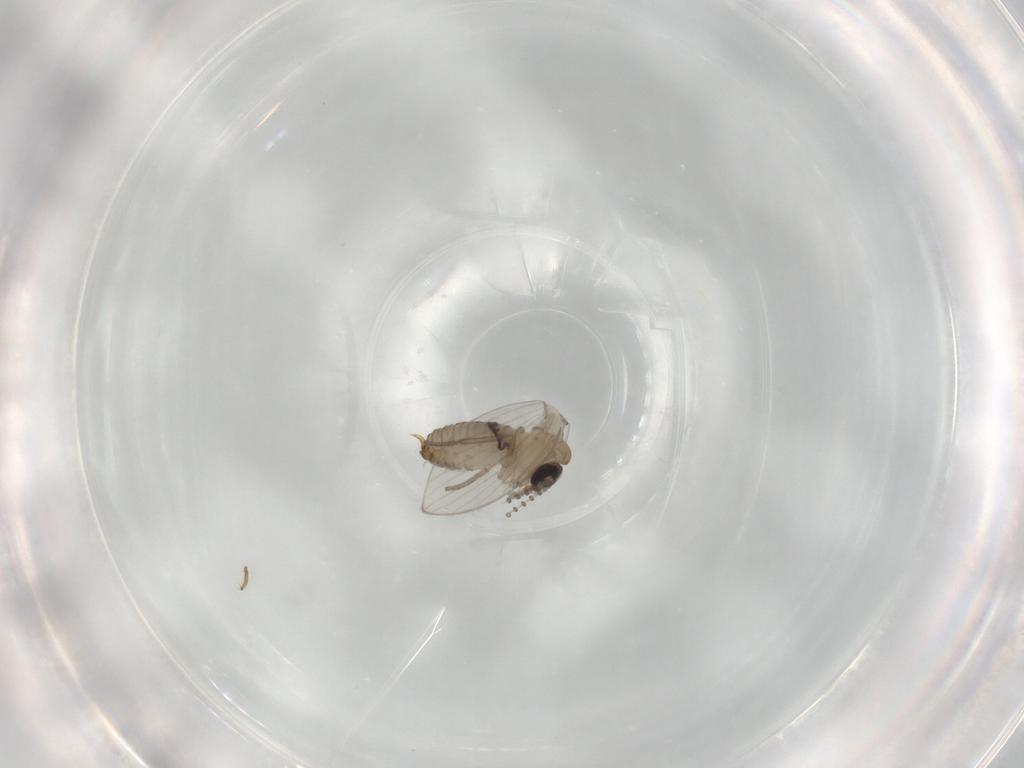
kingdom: Animalia
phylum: Arthropoda
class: Insecta
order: Diptera
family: Psychodidae
